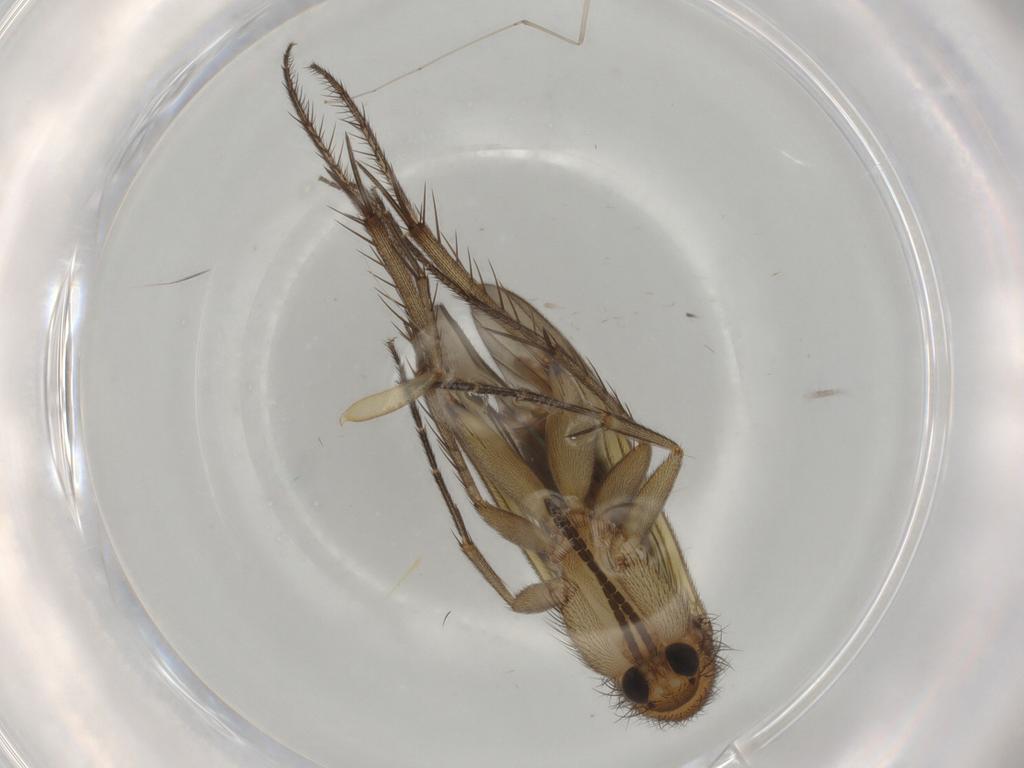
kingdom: Animalia
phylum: Arthropoda
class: Insecta
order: Diptera
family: Mycetophilidae
